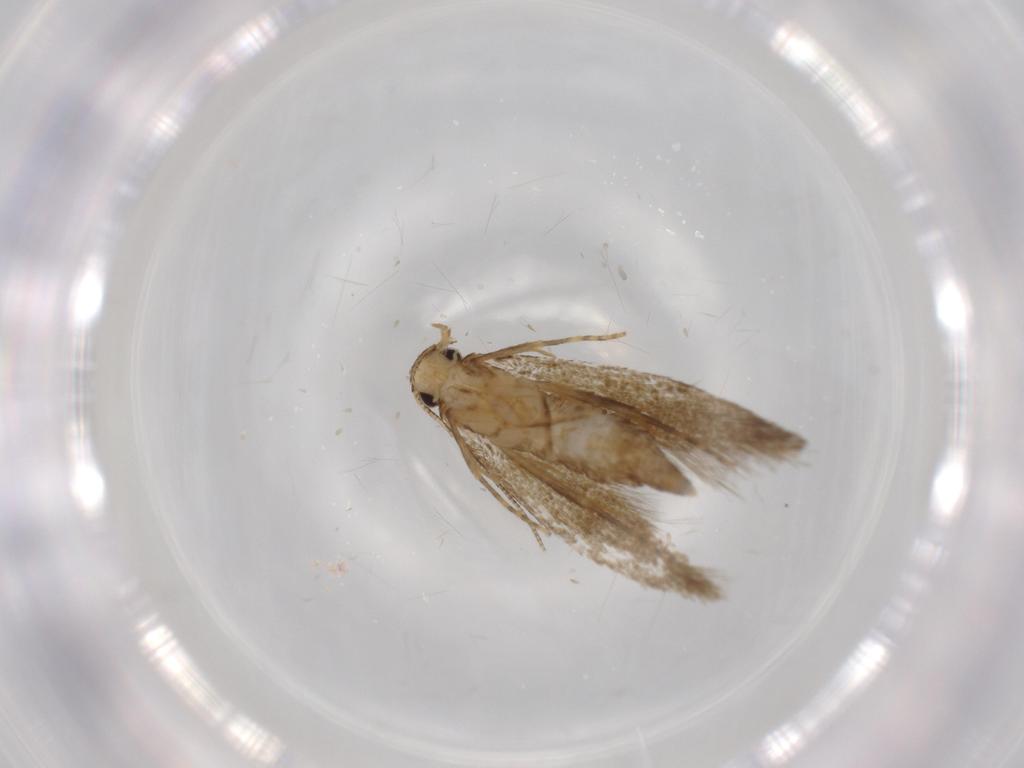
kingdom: Animalia
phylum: Arthropoda
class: Insecta
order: Lepidoptera
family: Tineidae
